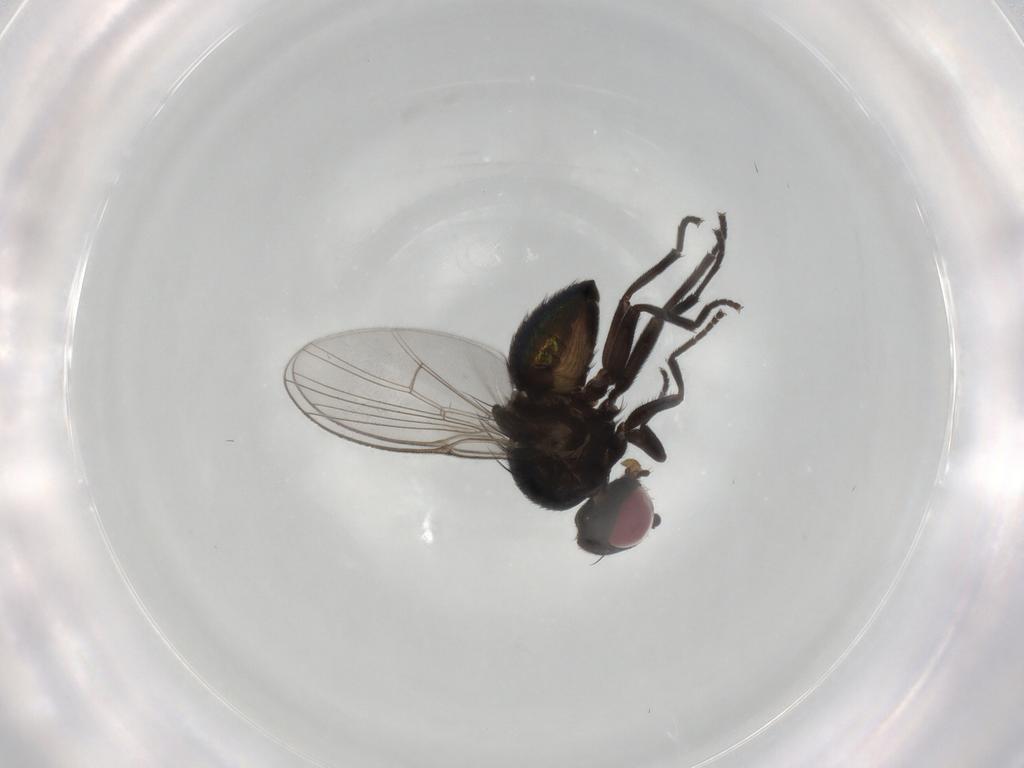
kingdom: Animalia
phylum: Arthropoda
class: Insecta
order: Diptera
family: Agromyzidae
